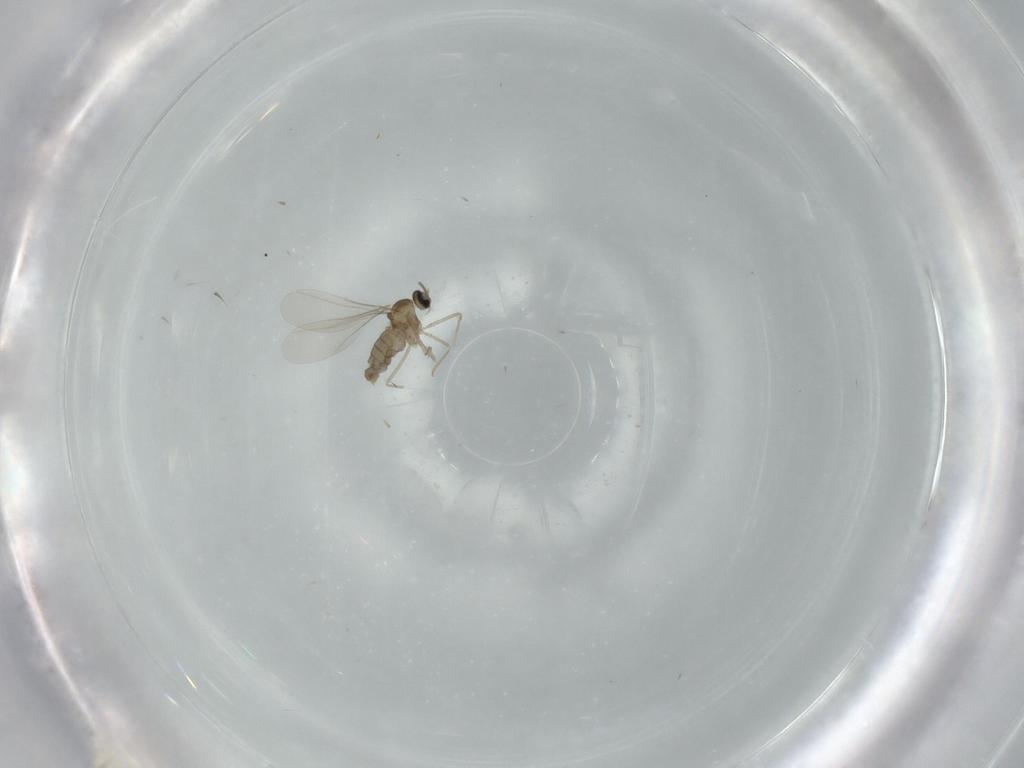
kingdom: Animalia
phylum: Arthropoda
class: Insecta
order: Diptera
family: Cecidomyiidae
